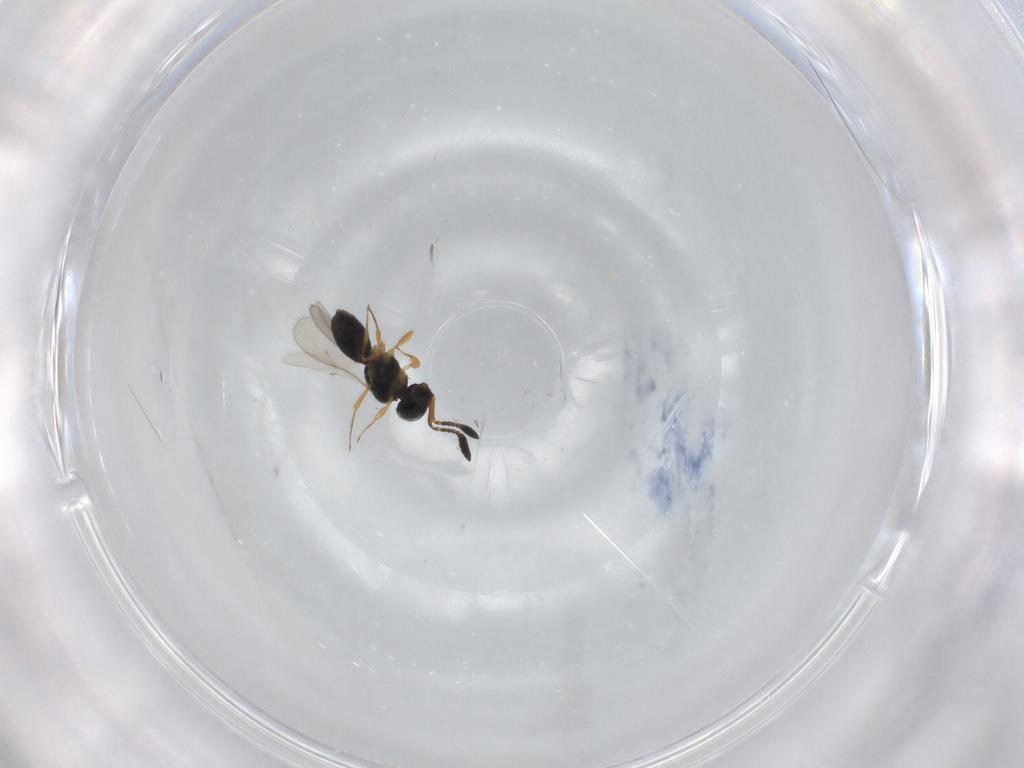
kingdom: Animalia
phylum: Arthropoda
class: Insecta
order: Hymenoptera
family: Scelionidae
